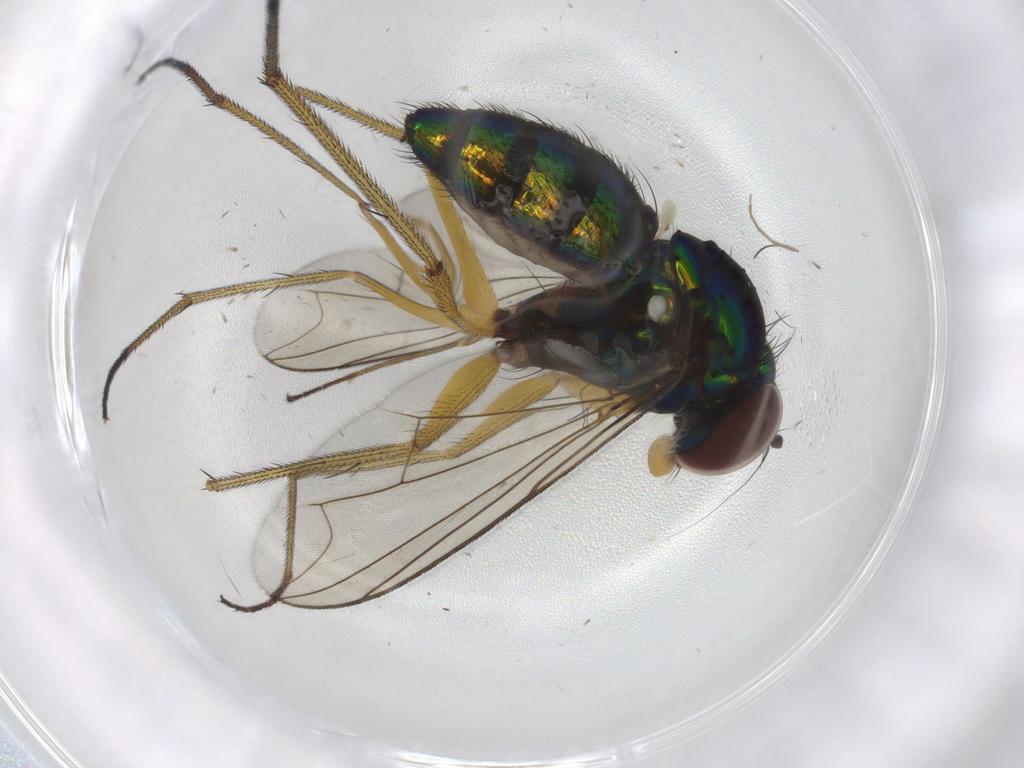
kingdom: Animalia
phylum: Arthropoda
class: Insecta
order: Diptera
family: Dolichopodidae
